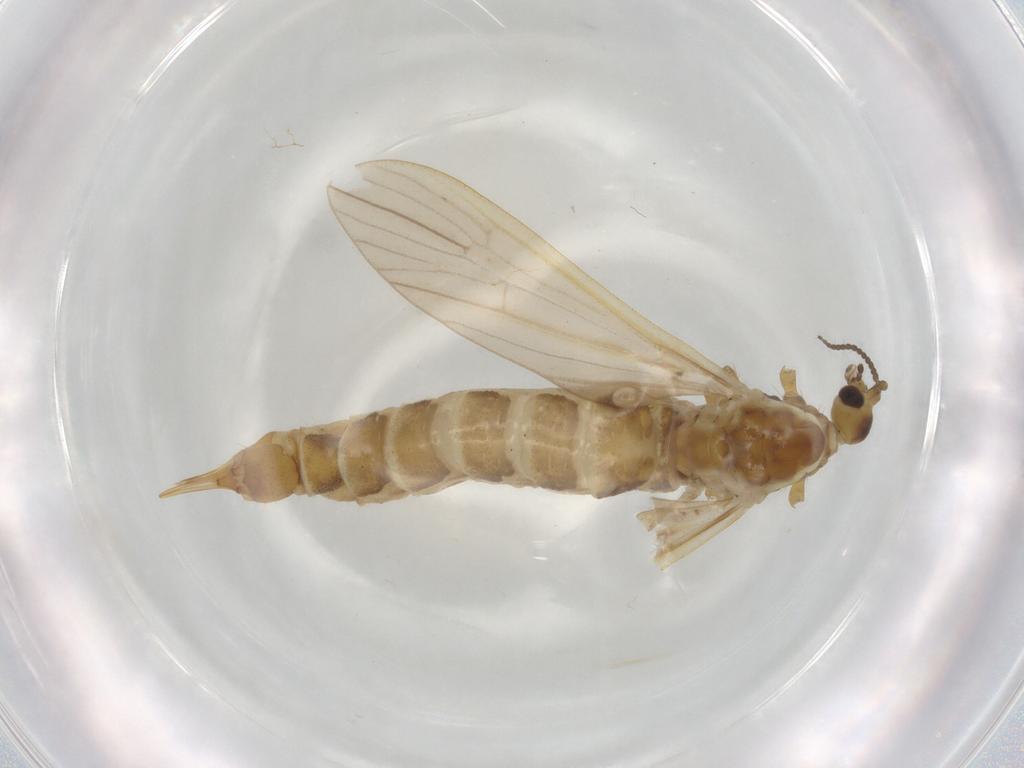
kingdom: Animalia
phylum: Arthropoda
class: Insecta
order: Diptera
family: Limoniidae
